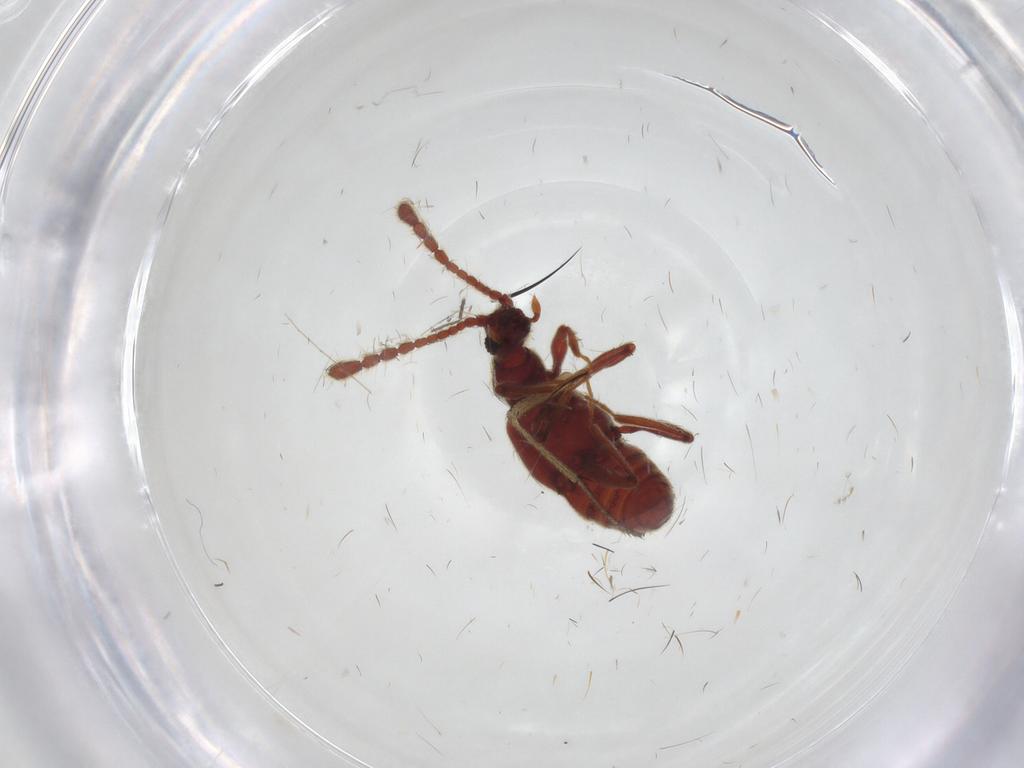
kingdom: Animalia
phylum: Arthropoda
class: Insecta
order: Coleoptera
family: Staphylinidae
